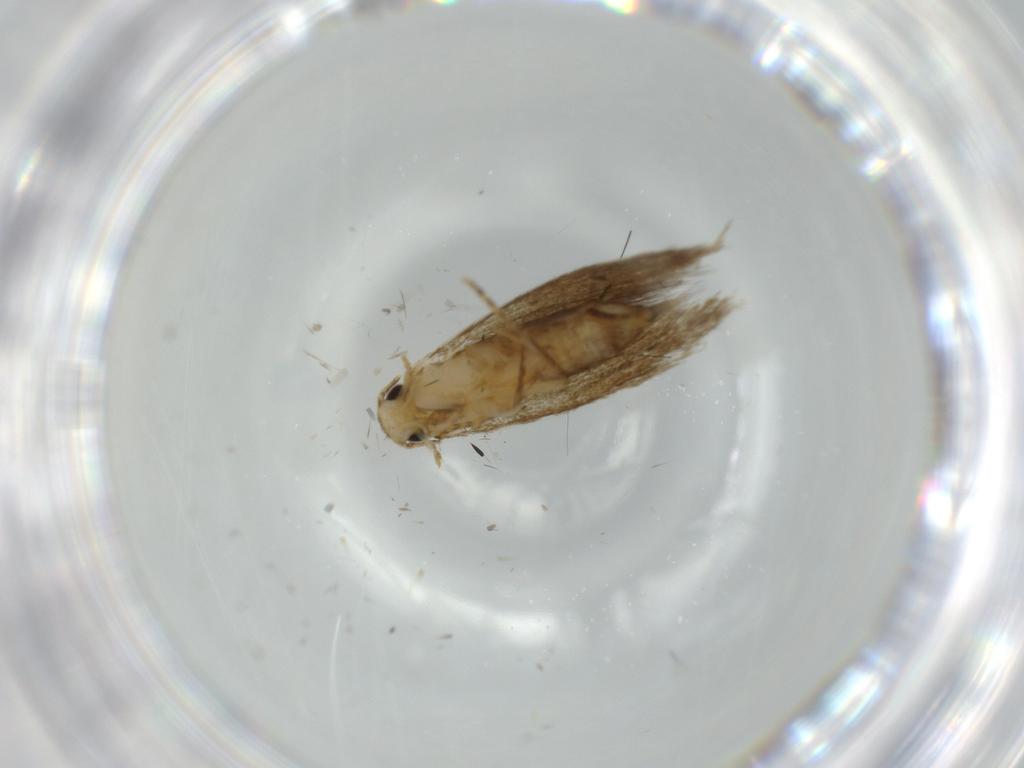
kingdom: Animalia
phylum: Arthropoda
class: Insecta
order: Lepidoptera
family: Tineidae
